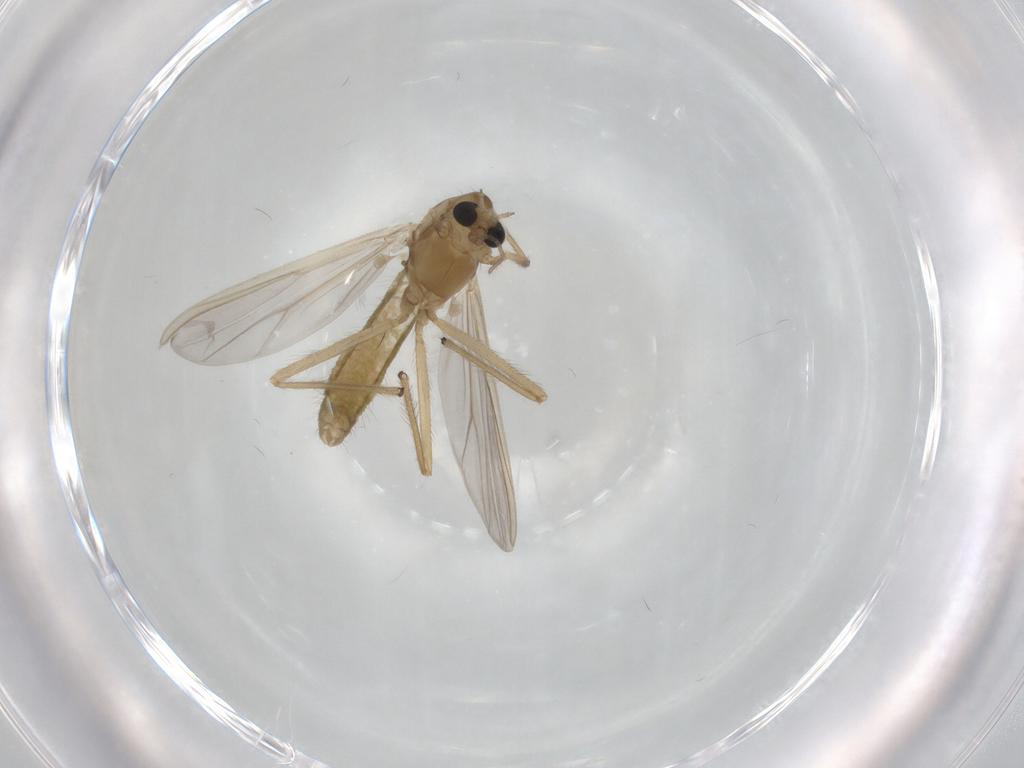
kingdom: Animalia
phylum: Arthropoda
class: Insecta
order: Diptera
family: Chironomidae
